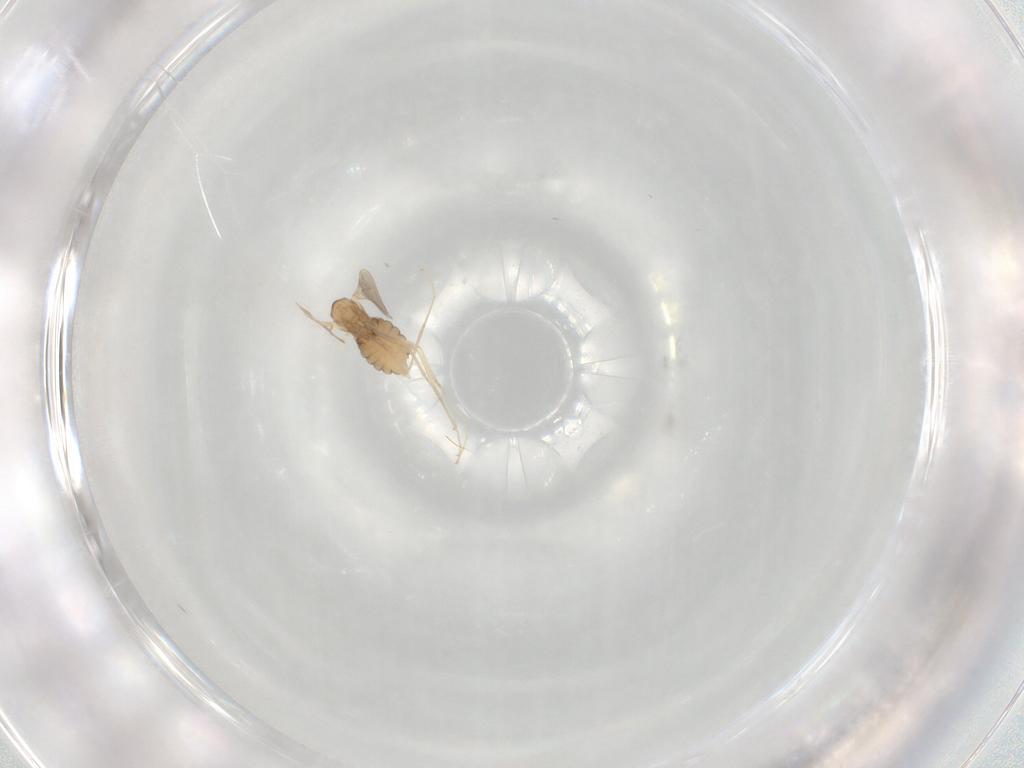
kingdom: Animalia
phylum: Arthropoda
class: Insecta
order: Diptera
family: Cecidomyiidae
